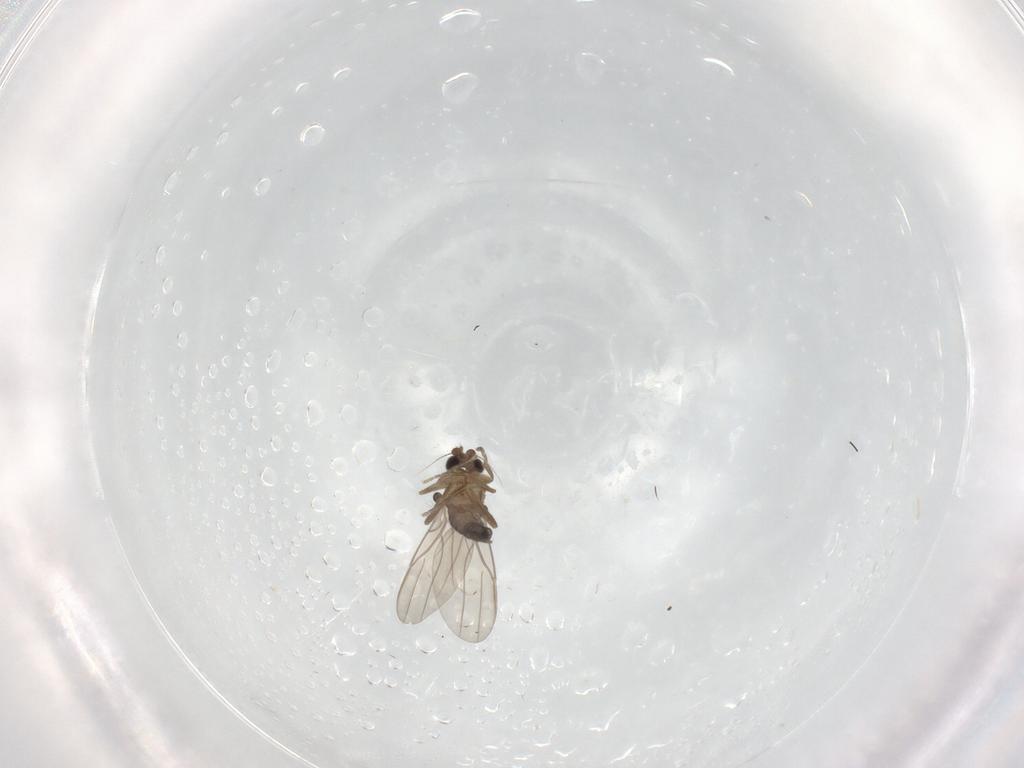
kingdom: Animalia
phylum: Arthropoda
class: Insecta
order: Diptera
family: Phoridae
